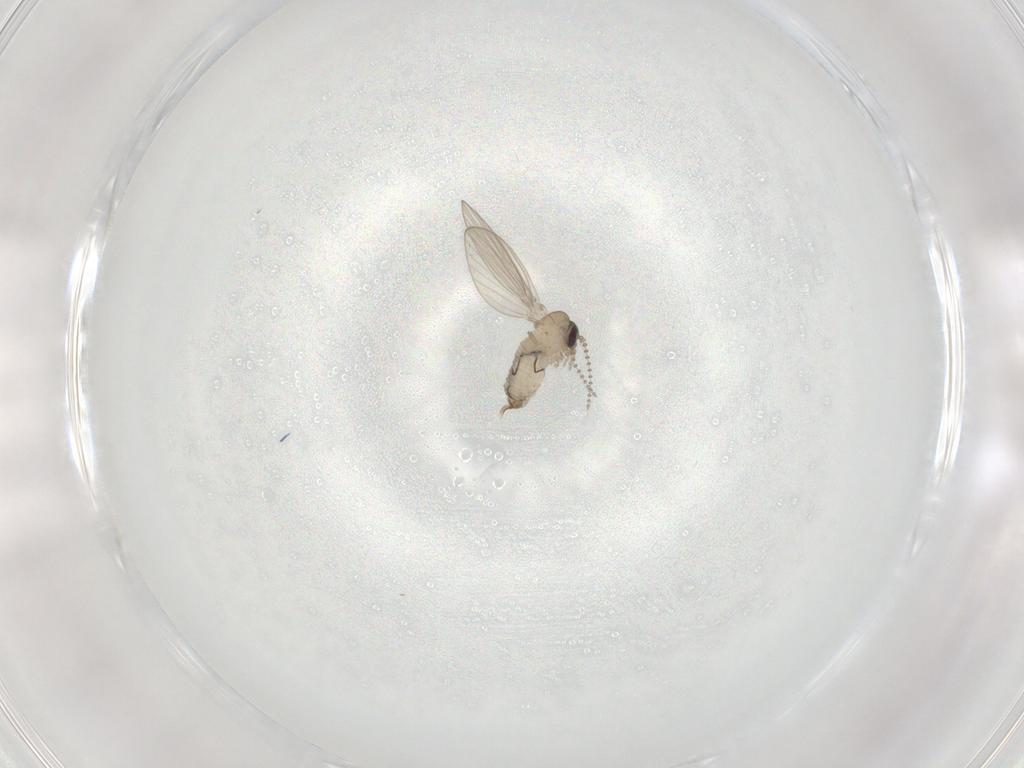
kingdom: Animalia
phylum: Arthropoda
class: Insecta
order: Diptera
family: Psychodidae
